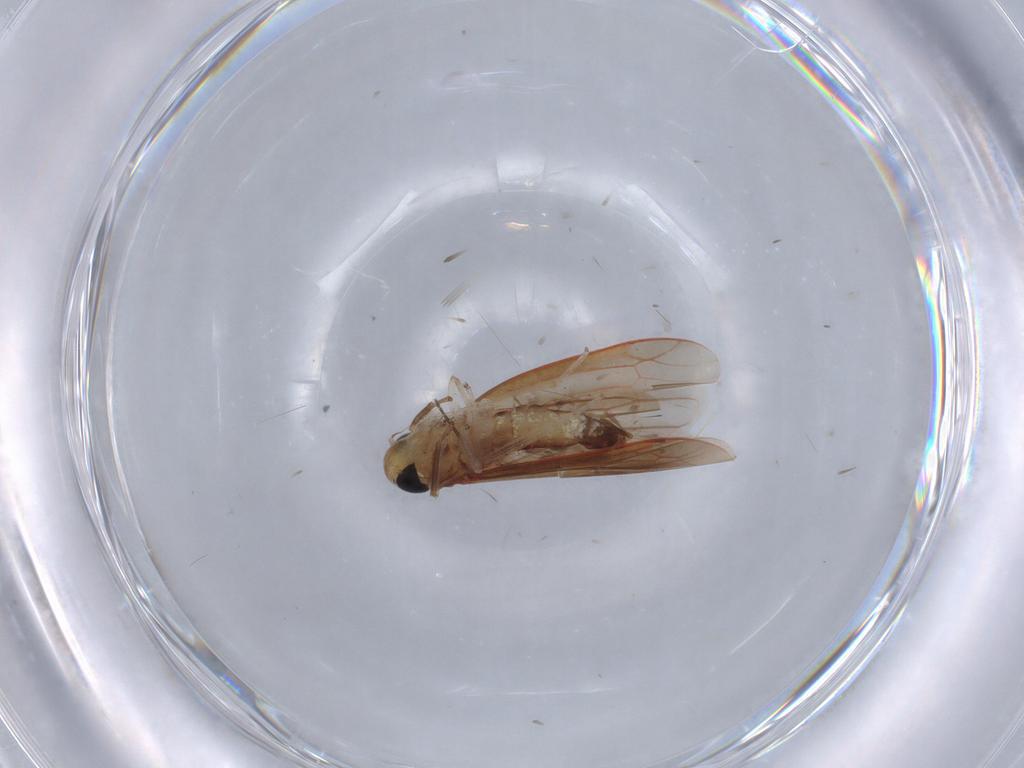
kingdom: Animalia
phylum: Arthropoda
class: Insecta
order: Hemiptera
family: Cicadellidae
